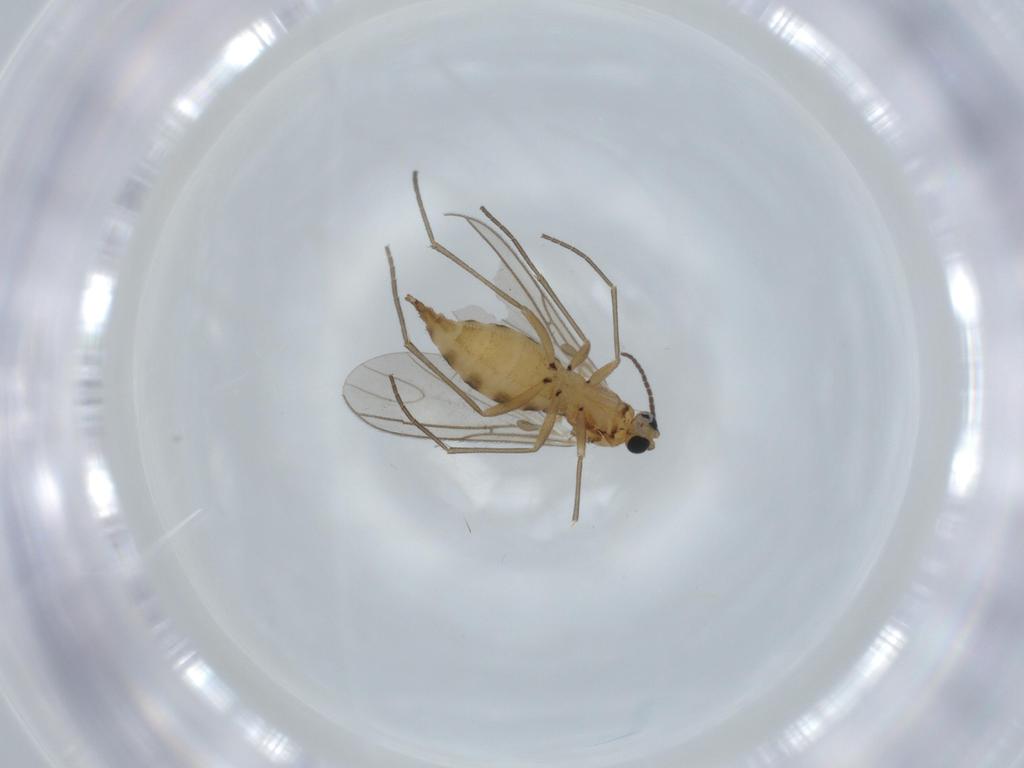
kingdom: Animalia
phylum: Arthropoda
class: Insecta
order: Diptera
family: Sciaridae
